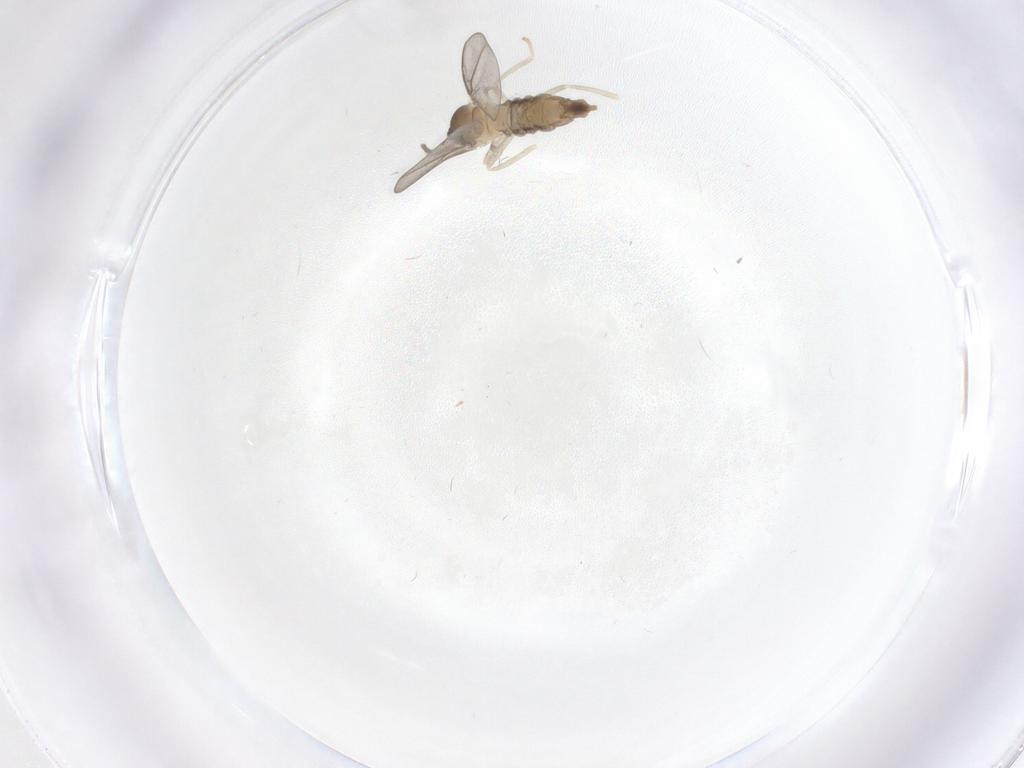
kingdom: Animalia
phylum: Arthropoda
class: Insecta
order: Diptera
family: Cecidomyiidae
